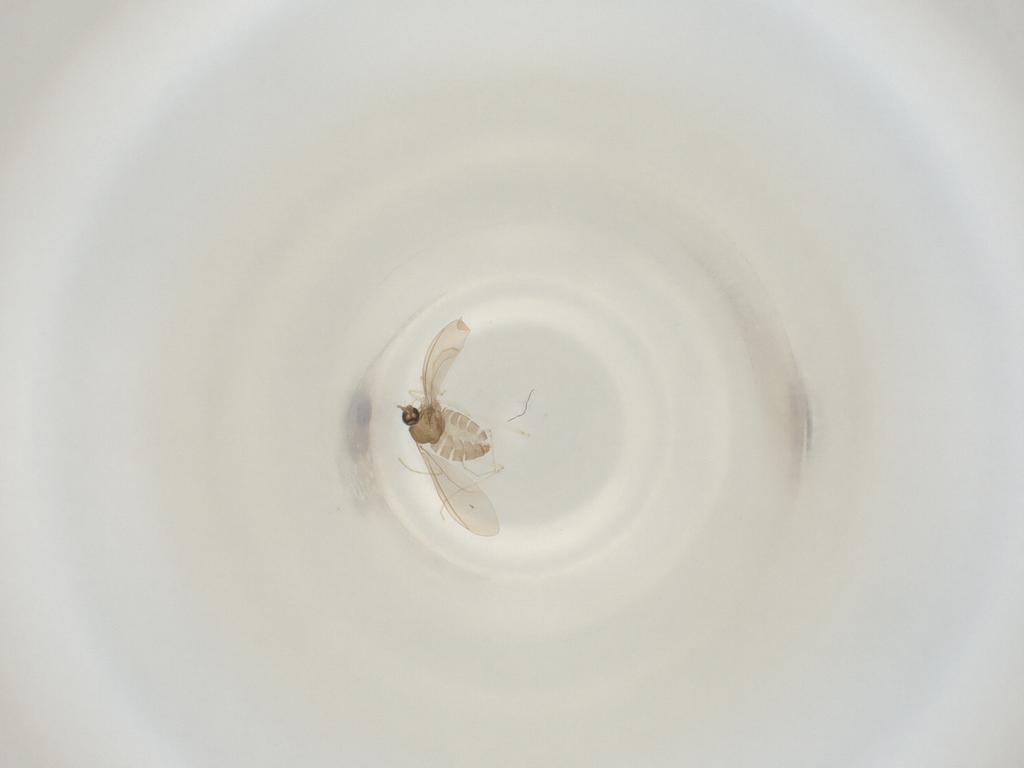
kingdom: Animalia
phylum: Arthropoda
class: Insecta
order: Diptera
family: Cecidomyiidae
